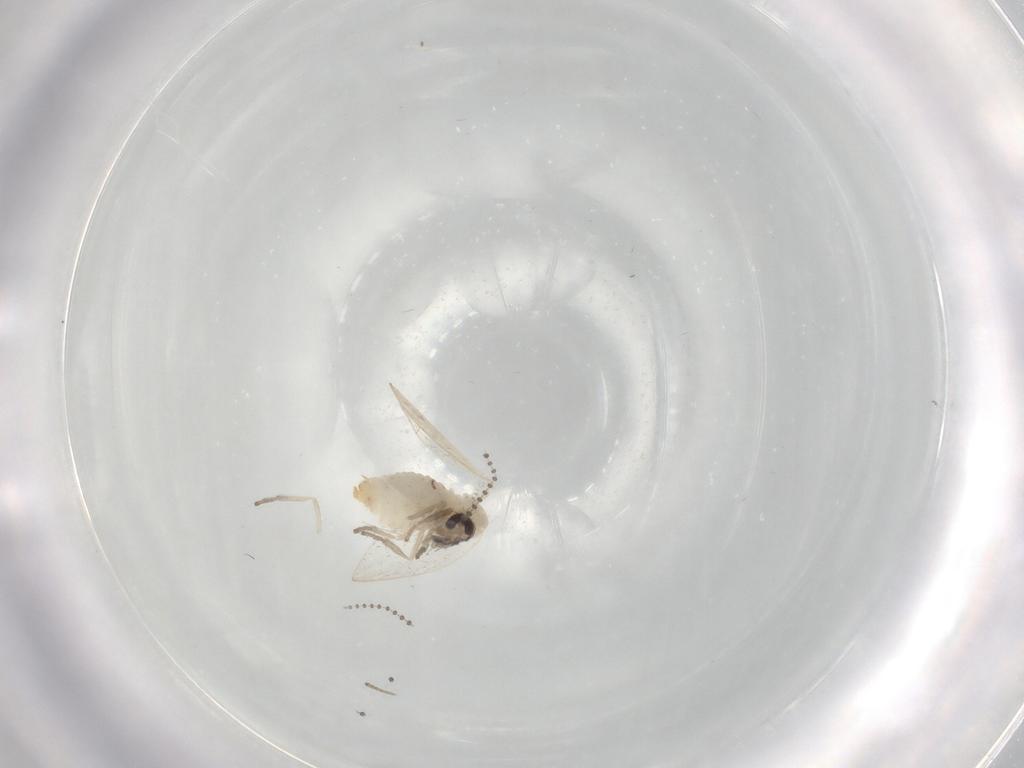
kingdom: Animalia
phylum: Arthropoda
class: Insecta
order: Diptera
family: Psychodidae
